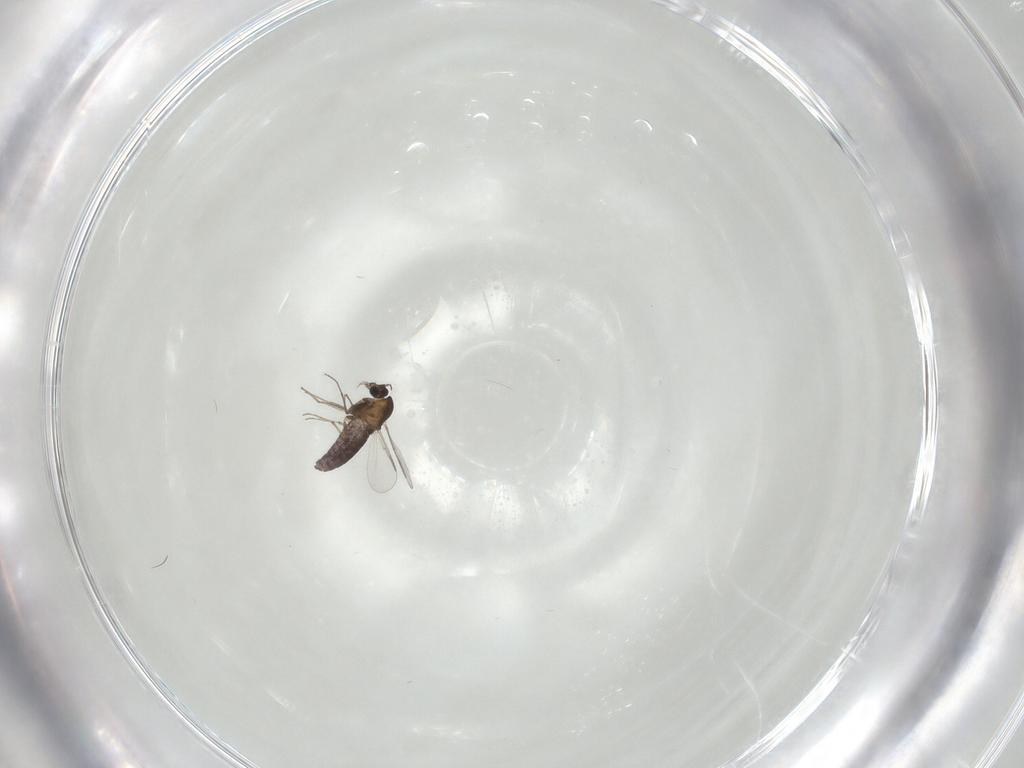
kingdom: Animalia
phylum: Arthropoda
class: Insecta
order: Diptera
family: Chironomidae
